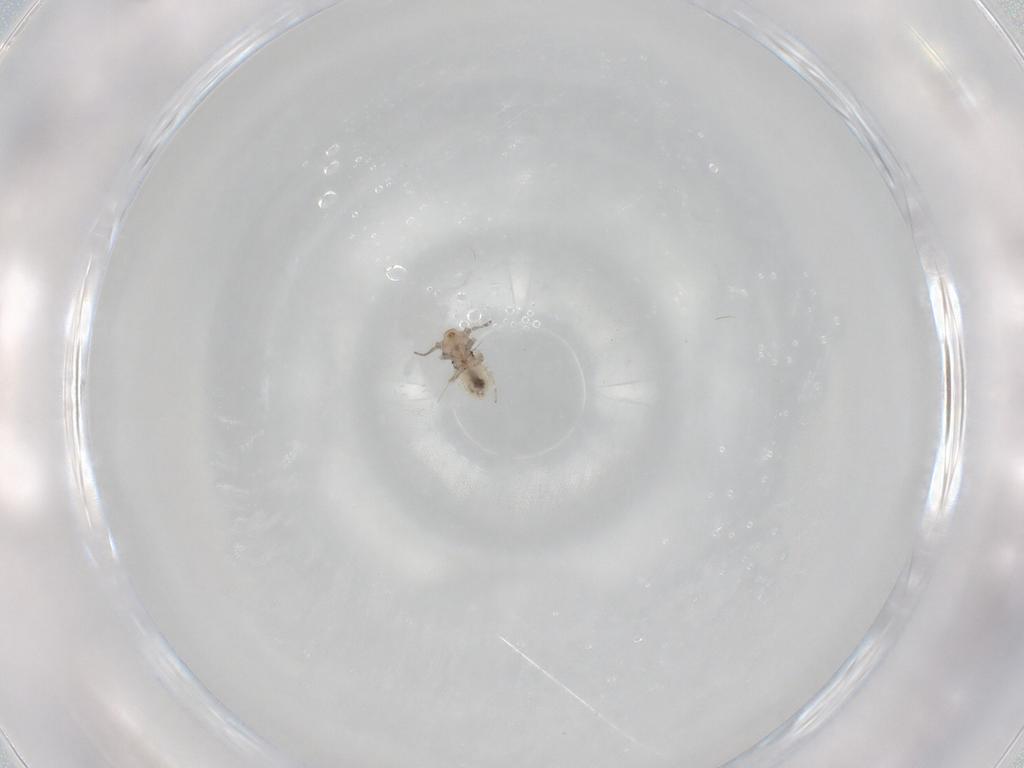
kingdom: Animalia
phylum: Arthropoda
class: Insecta
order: Psocodea
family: Lepidopsocidae
